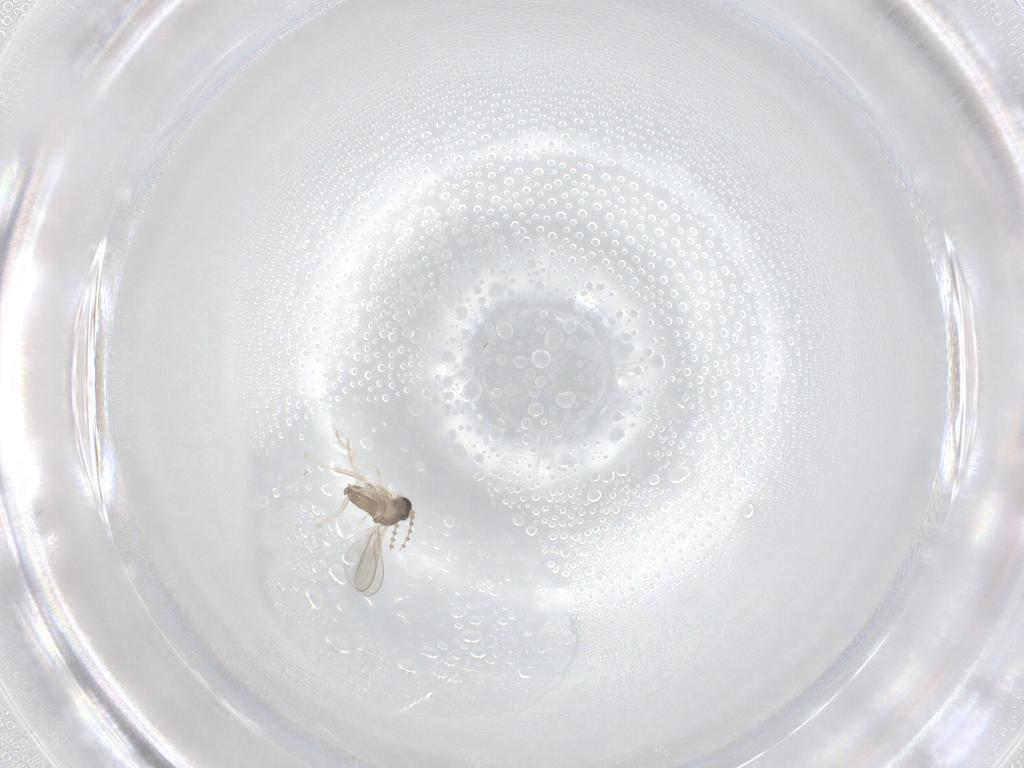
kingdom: Animalia
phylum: Arthropoda
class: Insecta
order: Diptera
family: Cecidomyiidae
